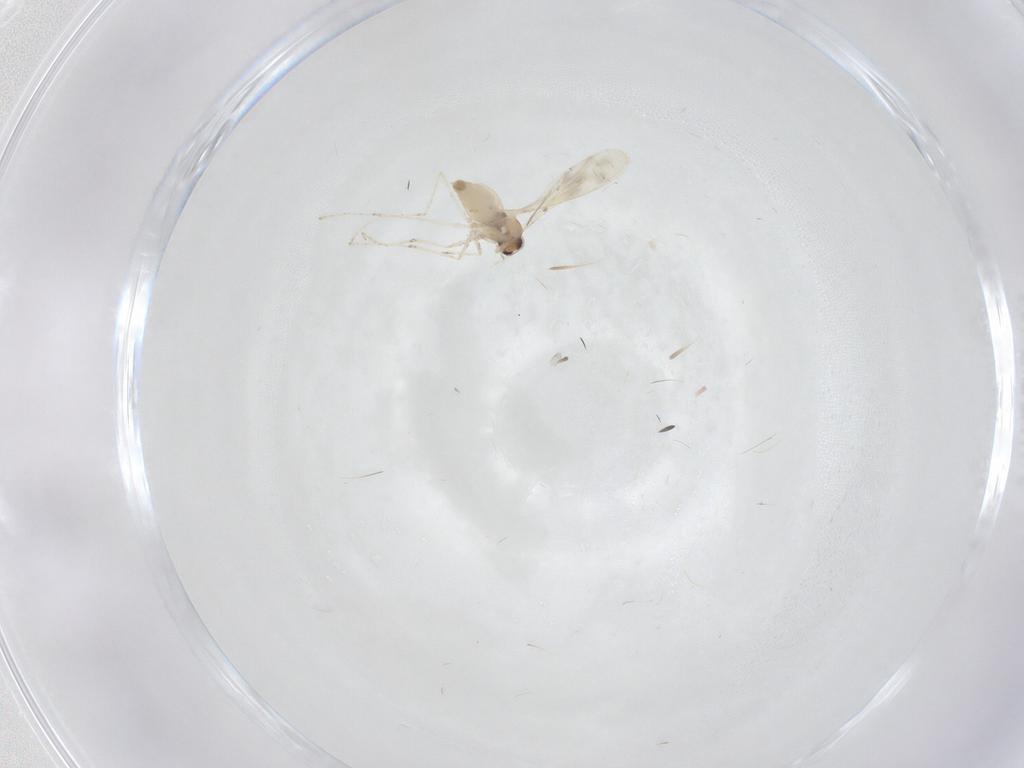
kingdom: Animalia
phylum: Arthropoda
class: Insecta
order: Diptera
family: Phoridae
